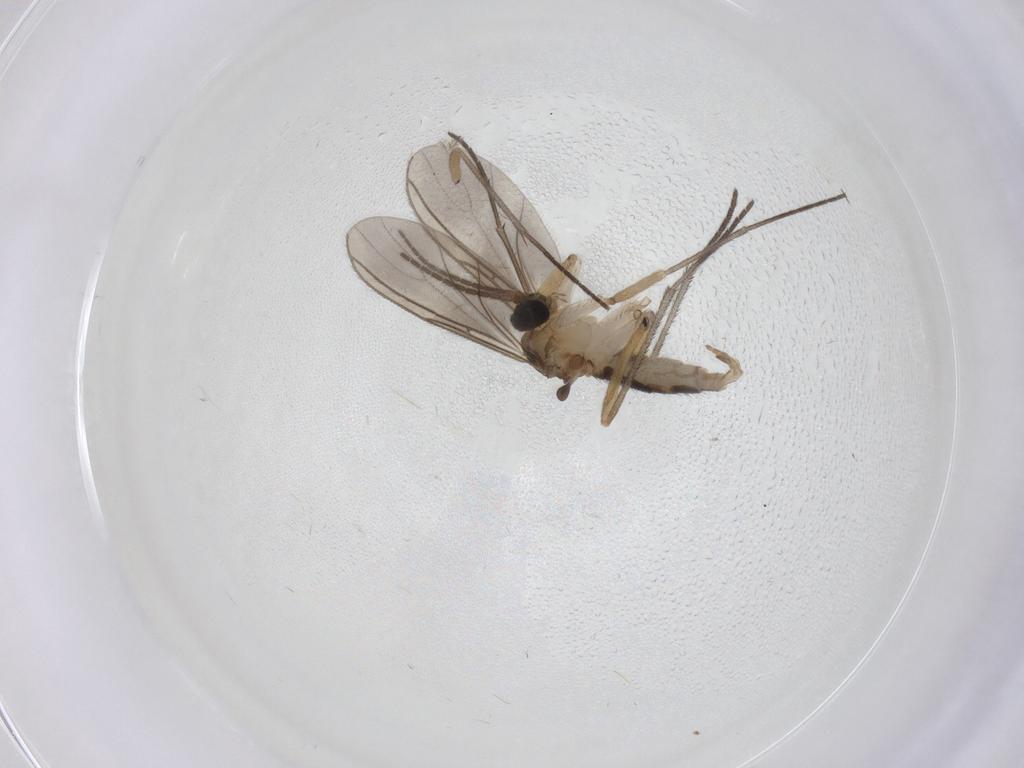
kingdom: Animalia
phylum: Arthropoda
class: Insecta
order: Diptera
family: Sciaridae
